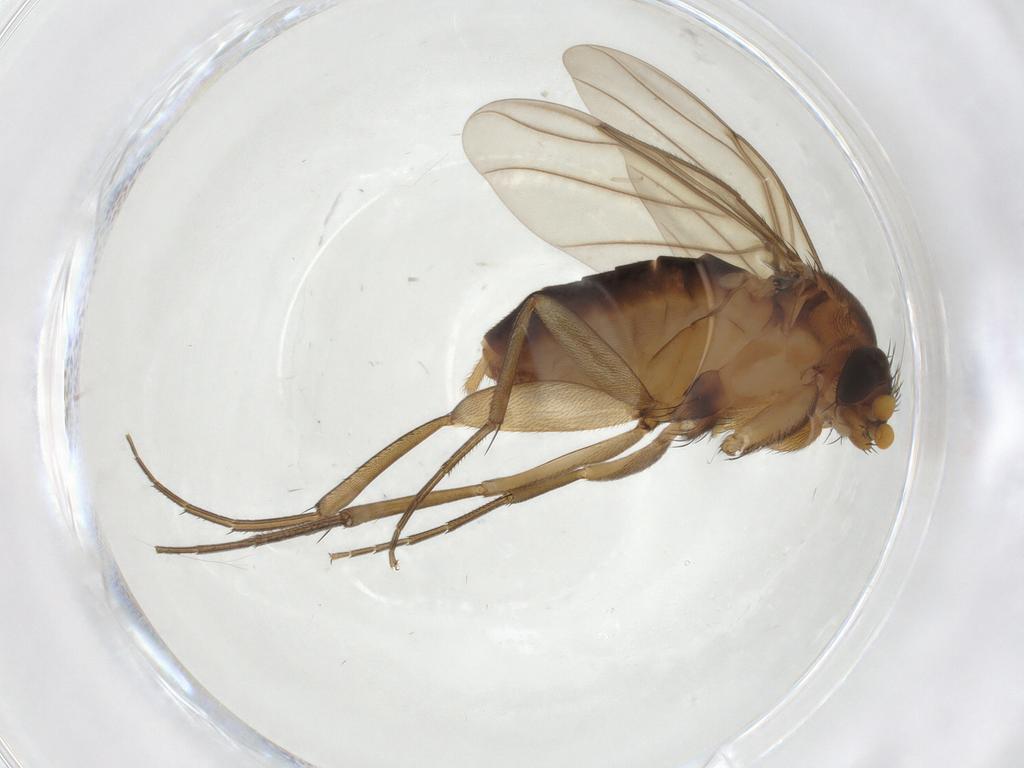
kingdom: Animalia
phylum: Arthropoda
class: Insecta
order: Diptera
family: Phoridae
